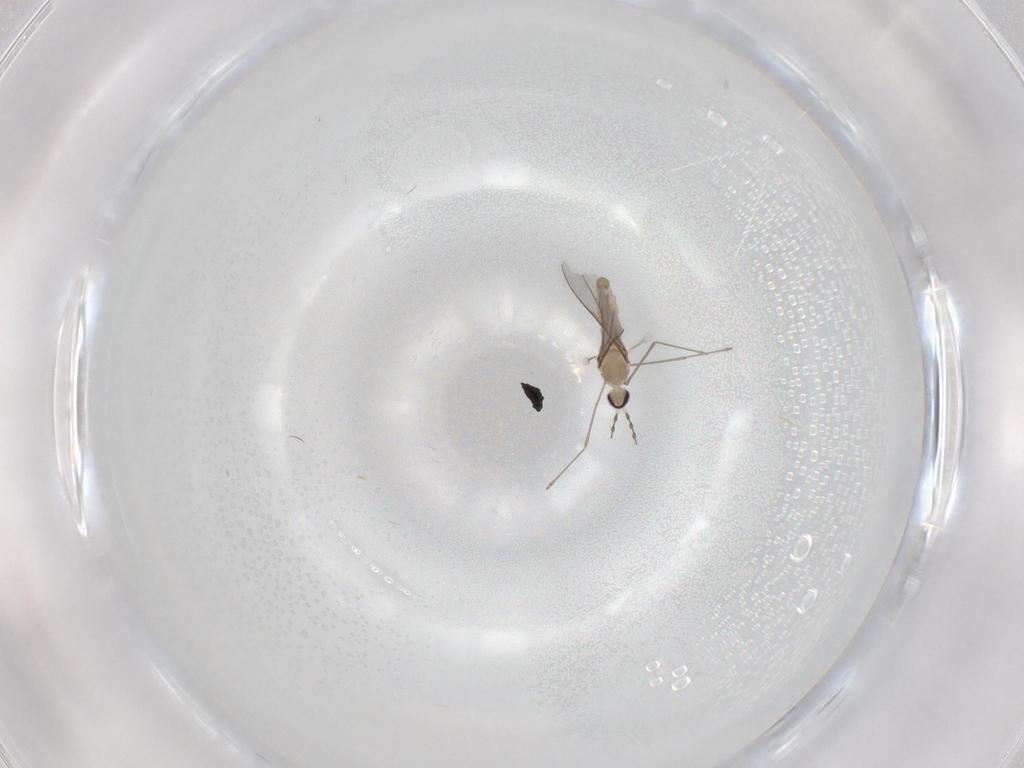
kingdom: Animalia
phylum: Arthropoda
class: Insecta
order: Diptera
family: Cecidomyiidae
